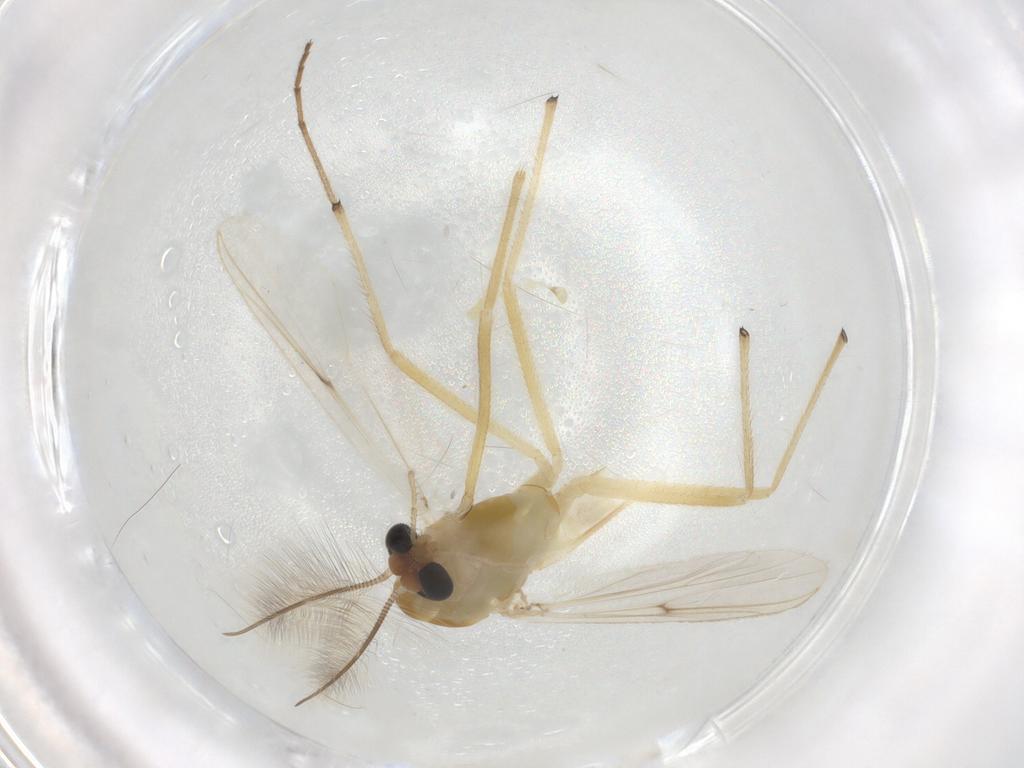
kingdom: Animalia
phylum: Arthropoda
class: Insecta
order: Diptera
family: Chironomidae
